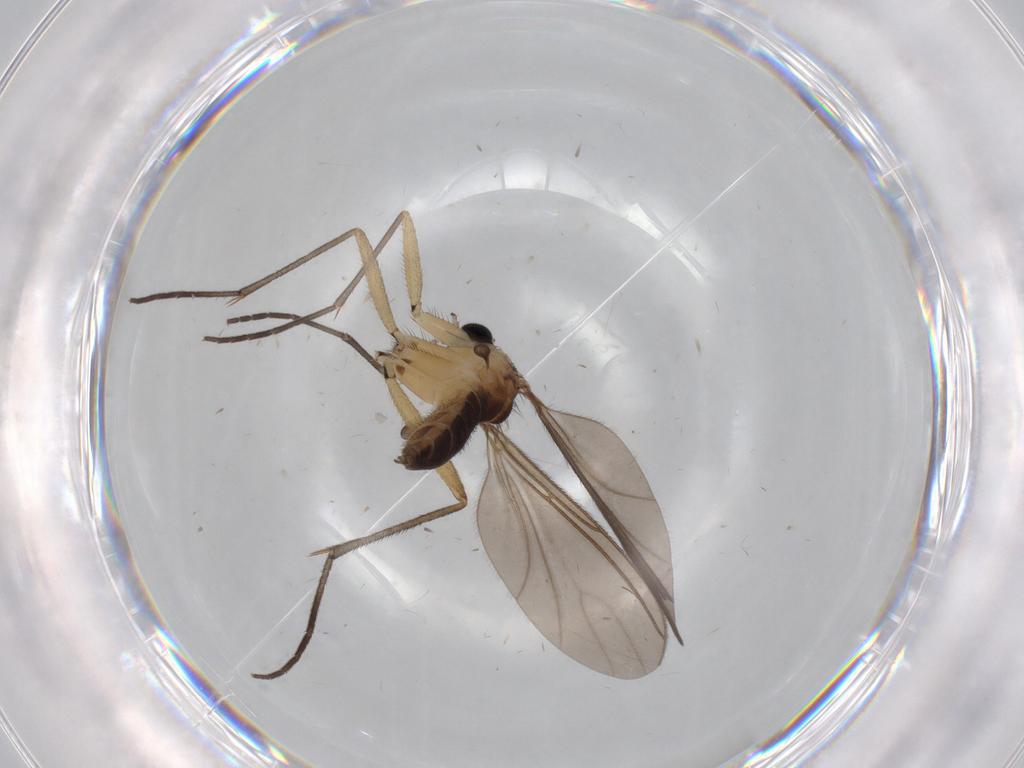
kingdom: Animalia
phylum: Arthropoda
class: Insecta
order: Diptera
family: Sciaridae
